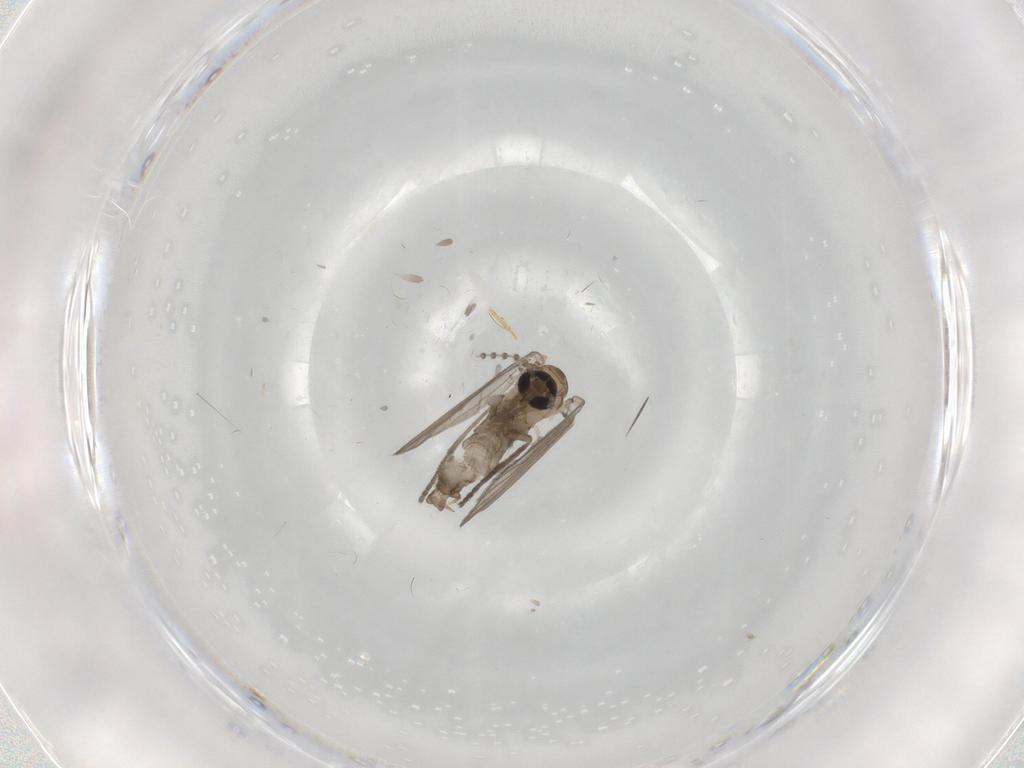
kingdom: Animalia
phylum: Arthropoda
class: Insecta
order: Diptera
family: Psychodidae
